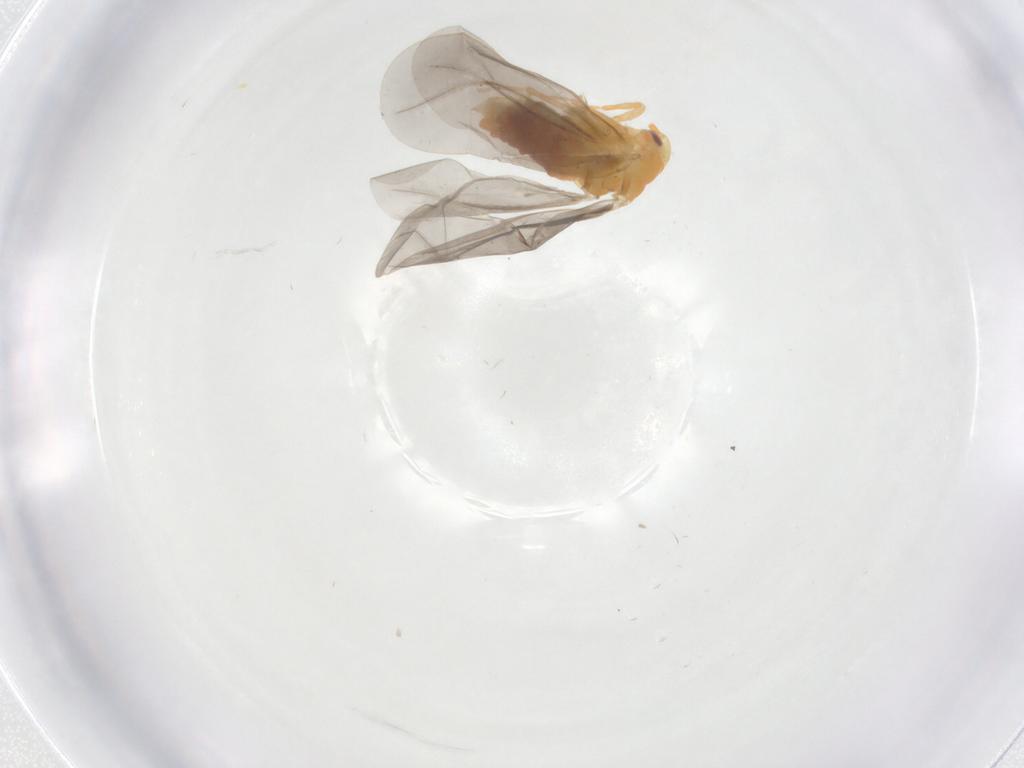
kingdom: Animalia
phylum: Arthropoda
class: Insecta
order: Hemiptera
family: Aleyrodidae
